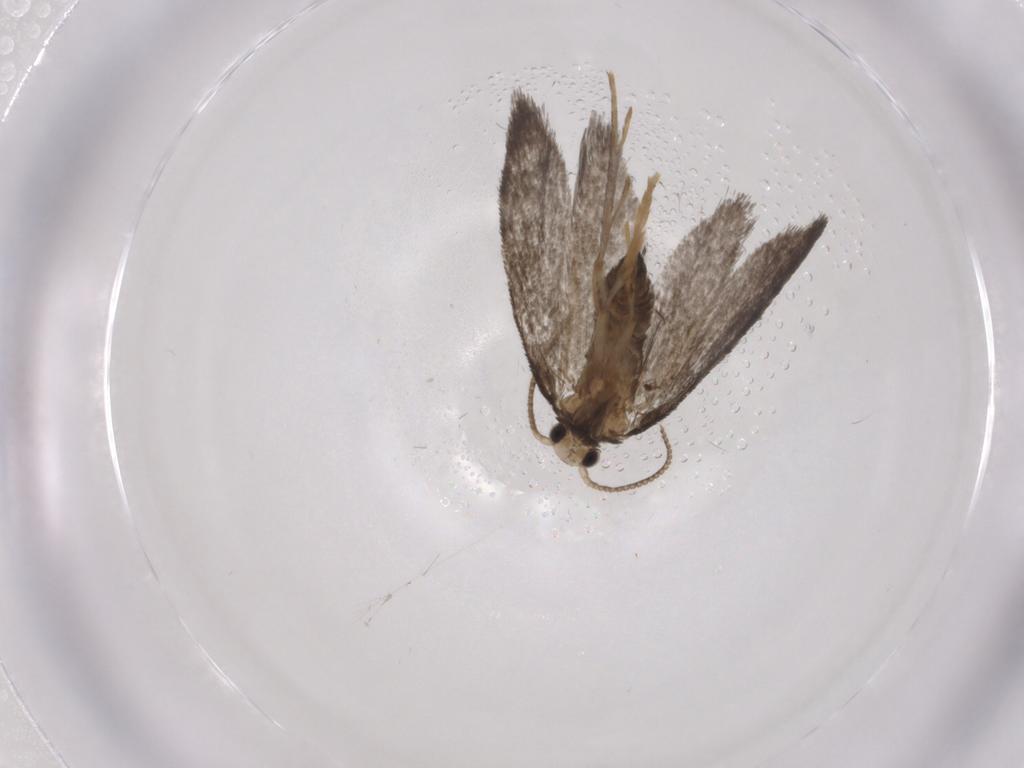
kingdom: Animalia
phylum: Arthropoda
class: Insecta
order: Lepidoptera
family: Psychidae
